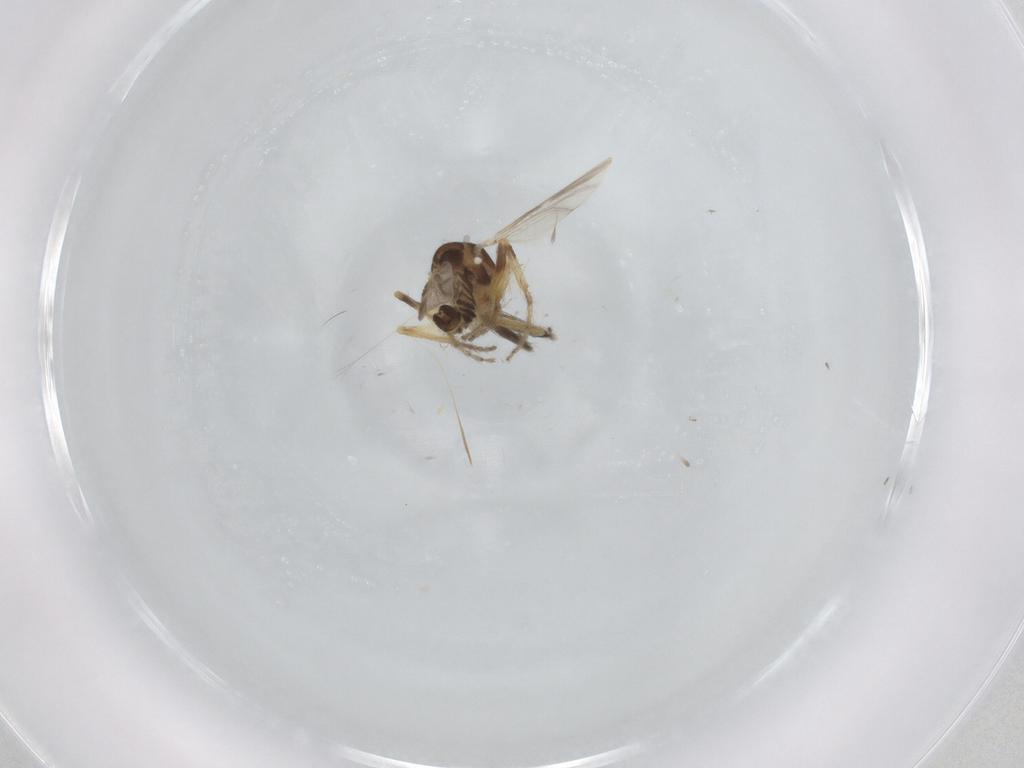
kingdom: Animalia
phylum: Arthropoda
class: Insecta
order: Diptera
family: Ceratopogonidae
